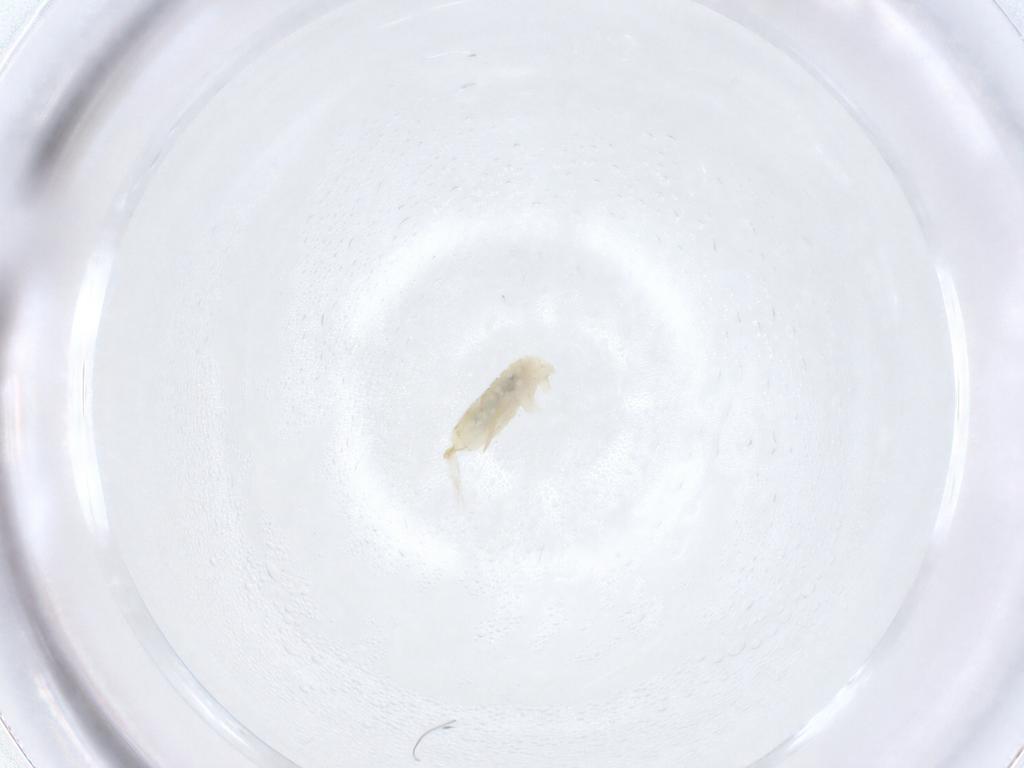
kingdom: Animalia
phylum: Arthropoda
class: Collembola
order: Entomobryomorpha
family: Entomobryidae
